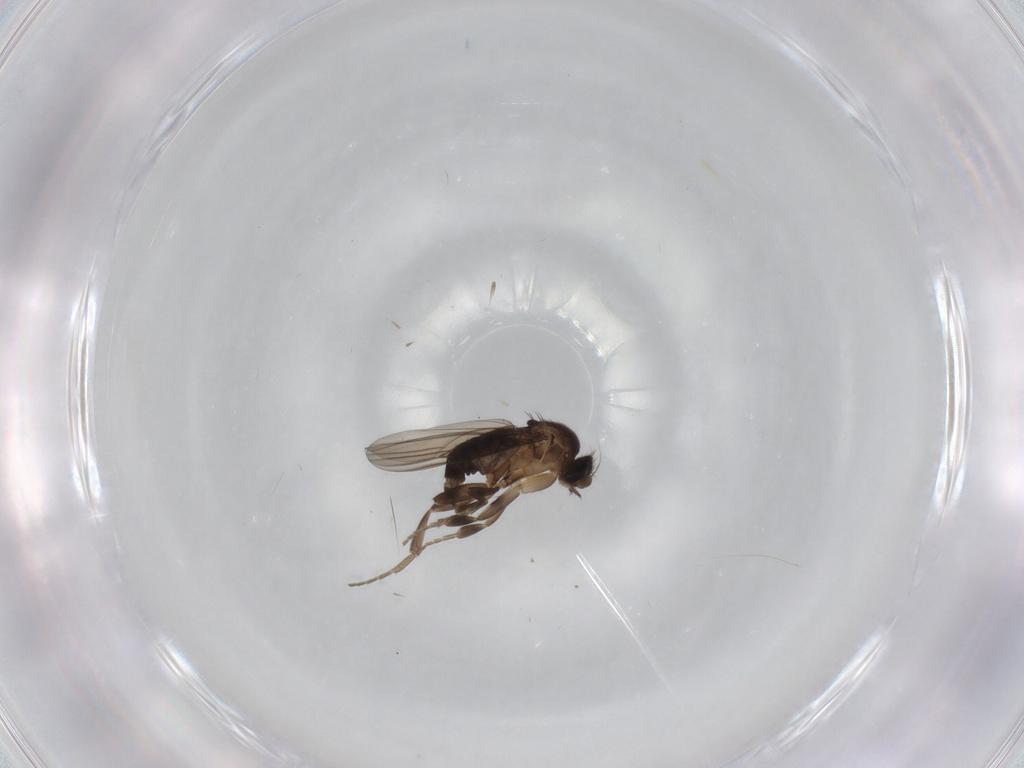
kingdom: Animalia
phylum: Arthropoda
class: Insecta
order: Diptera
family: Phoridae
